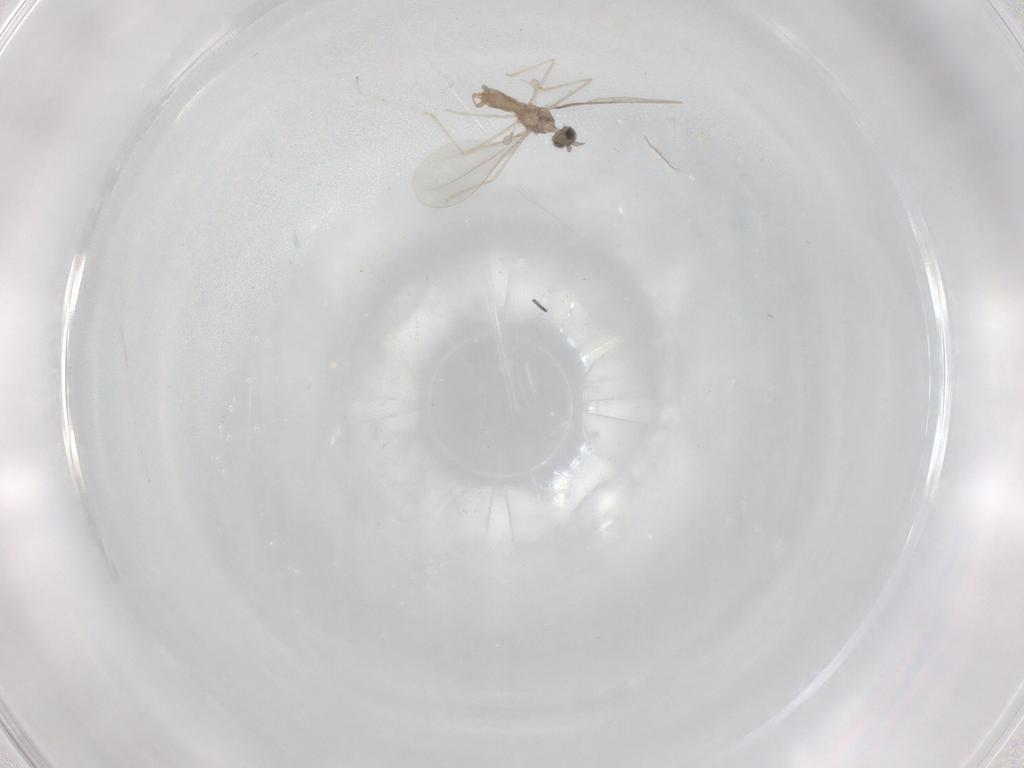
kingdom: Animalia
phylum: Arthropoda
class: Insecta
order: Diptera
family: Cecidomyiidae
